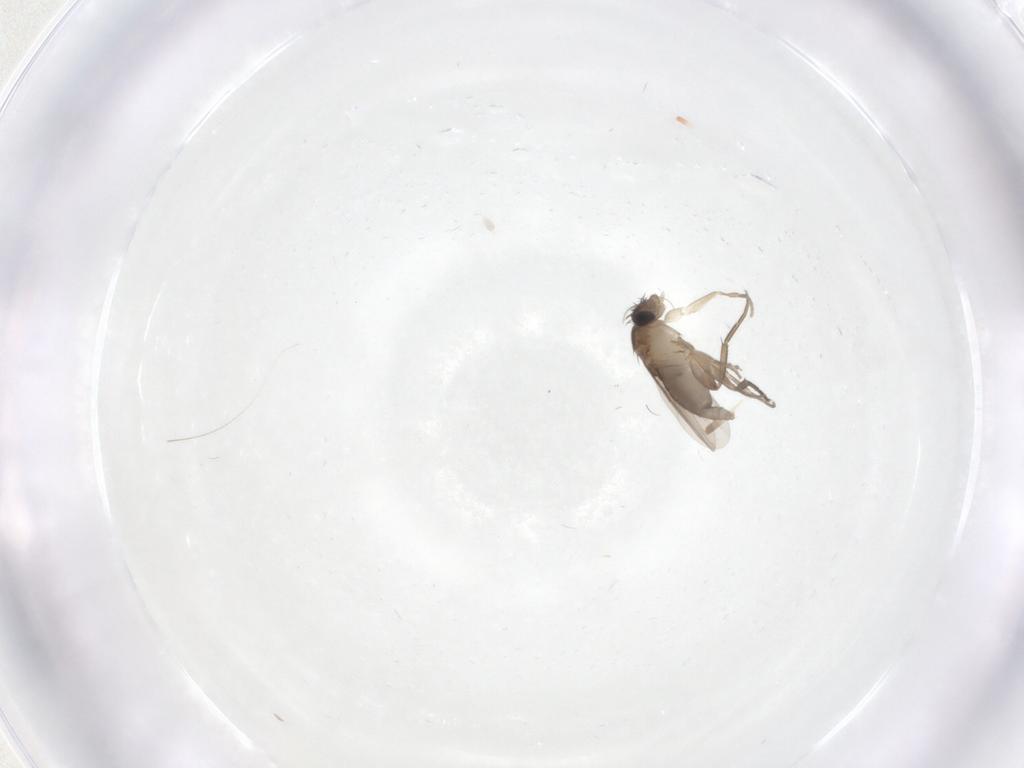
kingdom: Animalia
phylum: Arthropoda
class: Insecta
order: Diptera
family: Phoridae
